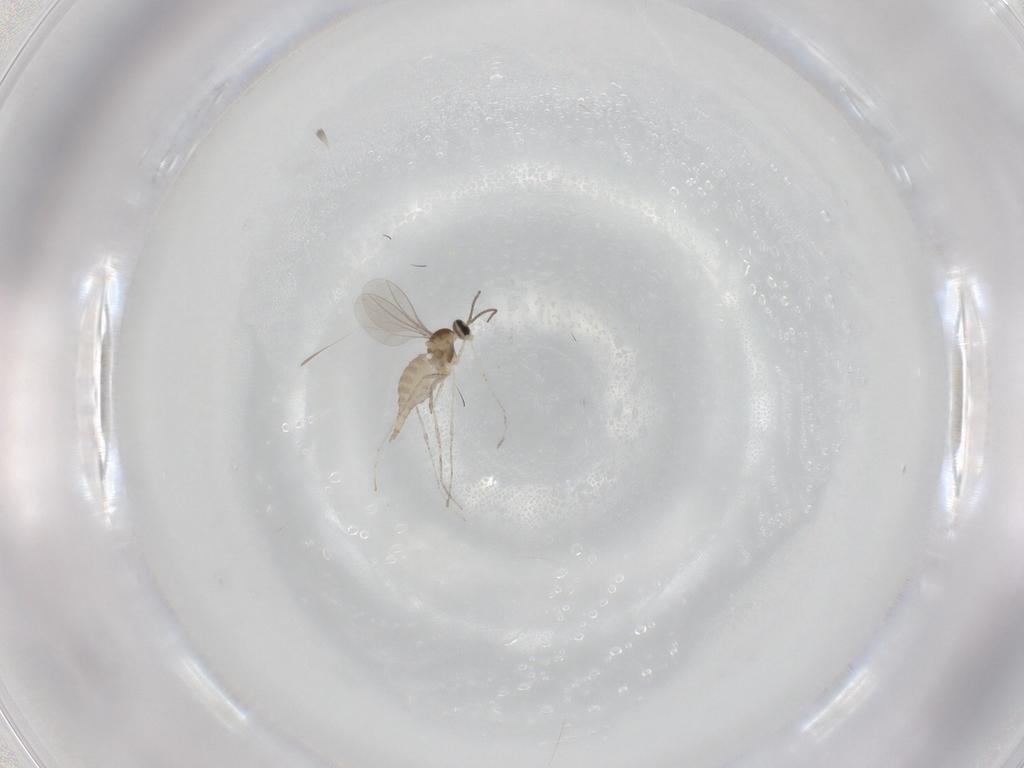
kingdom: Animalia
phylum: Arthropoda
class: Insecta
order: Diptera
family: Cecidomyiidae
